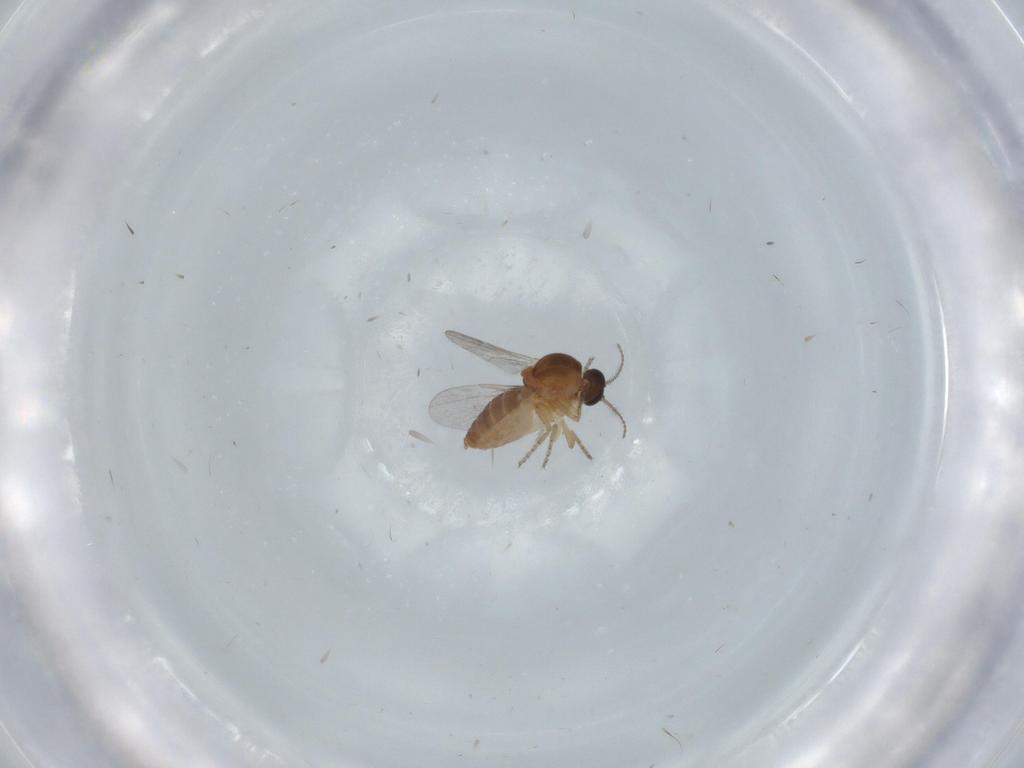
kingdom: Animalia
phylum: Arthropoda
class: Insecta
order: Diptera
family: Ceratopogonidae
